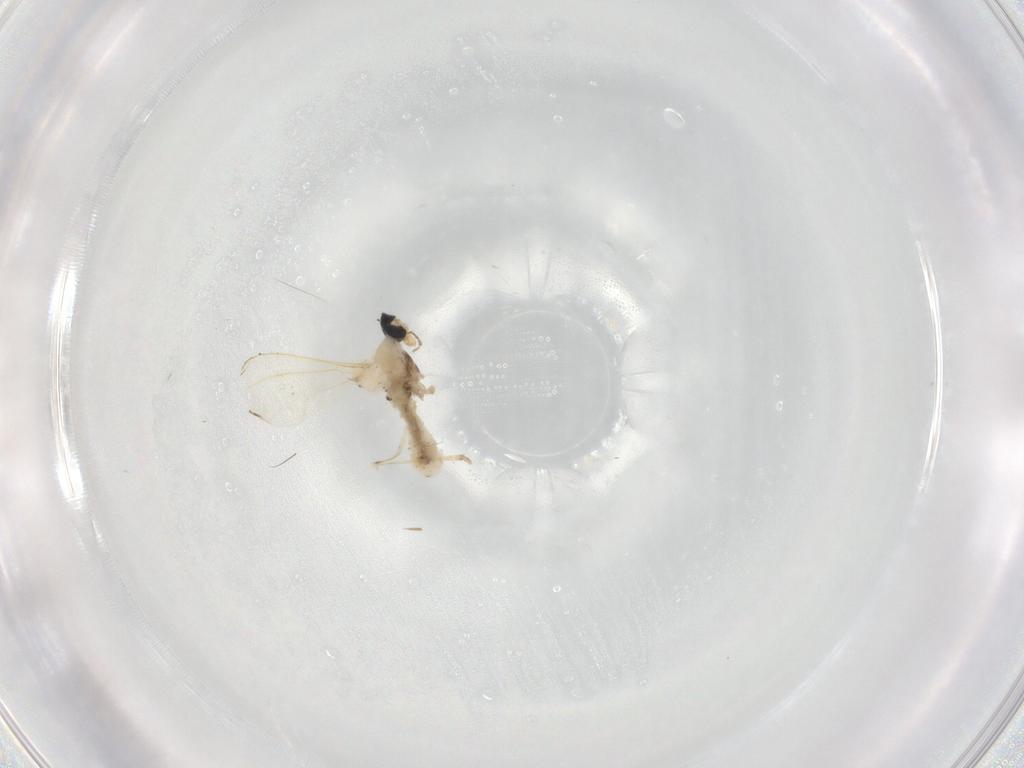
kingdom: Animalia
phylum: Arthropoda
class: Insecta
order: Diptera
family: Cecidomyiidae
